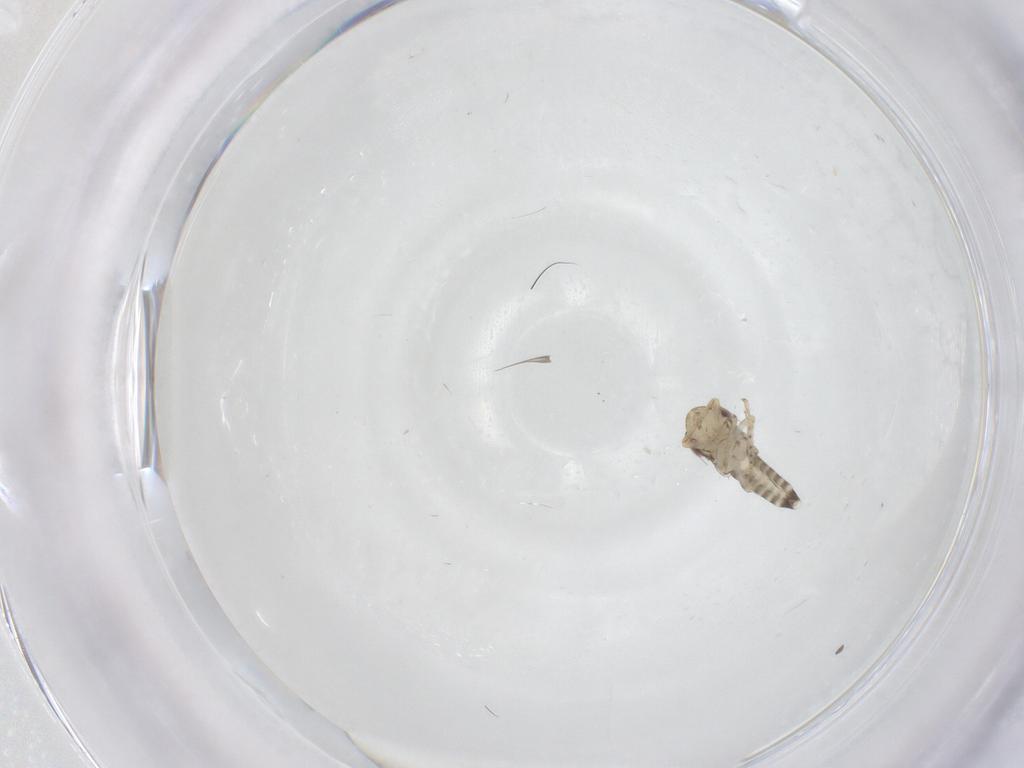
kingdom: Animalia
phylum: Arthropoda
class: Insecta
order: Hemiptera
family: Cicadellidae
